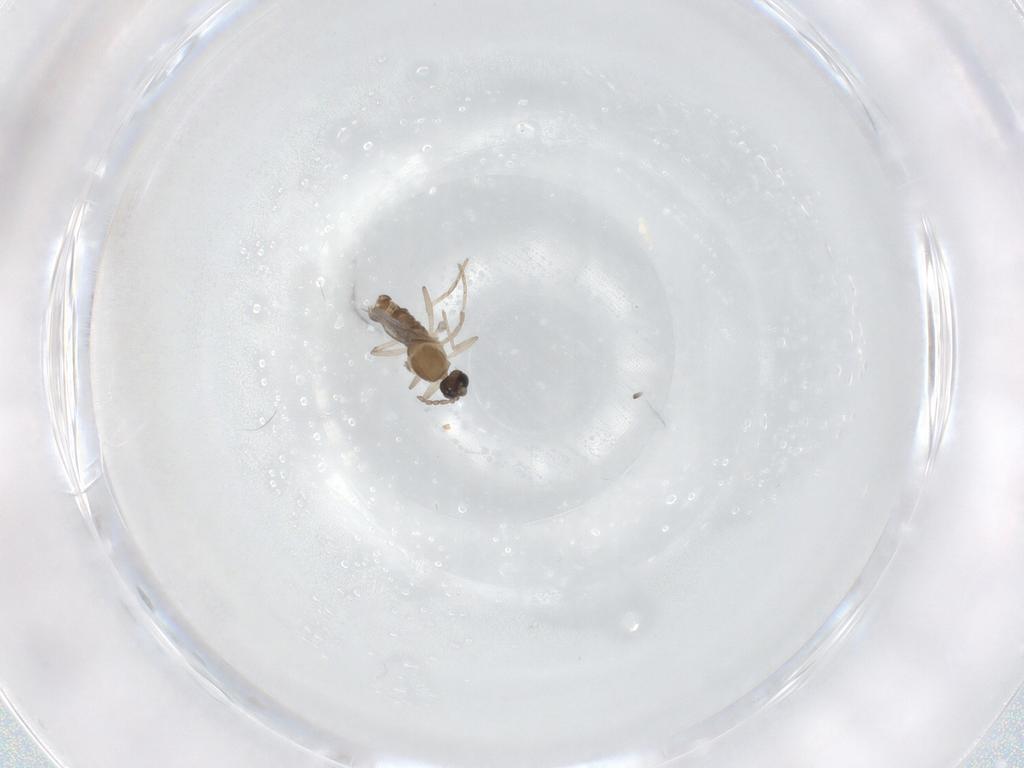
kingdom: Animalia
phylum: Arthropoda
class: Insecta
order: Diptera
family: Cecidomyiidae
